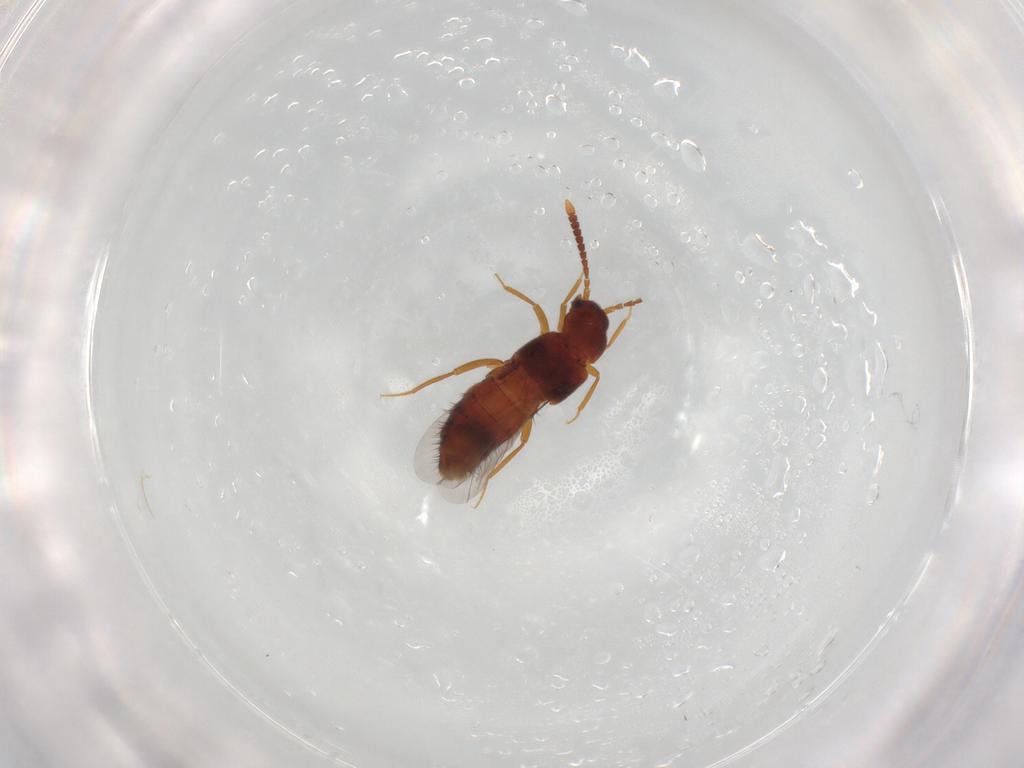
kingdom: Animalia
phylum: Arthropoda
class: Insecta
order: Coleoptera
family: Staphylinidae
